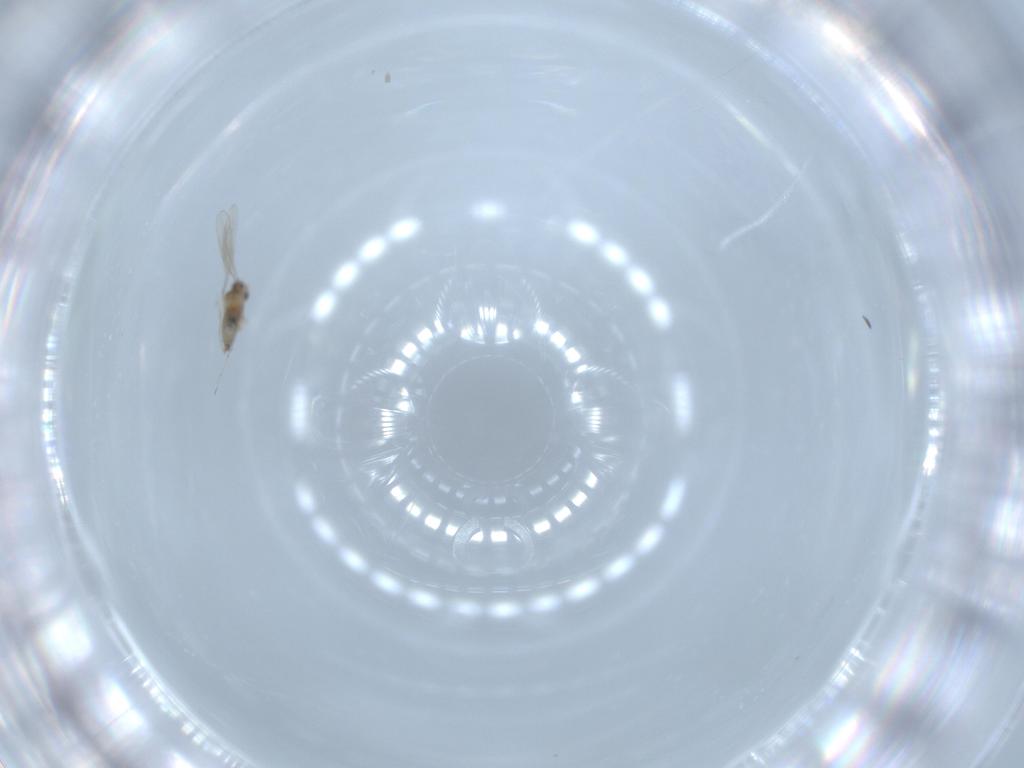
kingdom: Animalia
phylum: Arthropoda
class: Insecta
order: Diptera
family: Cecidomyiidae
